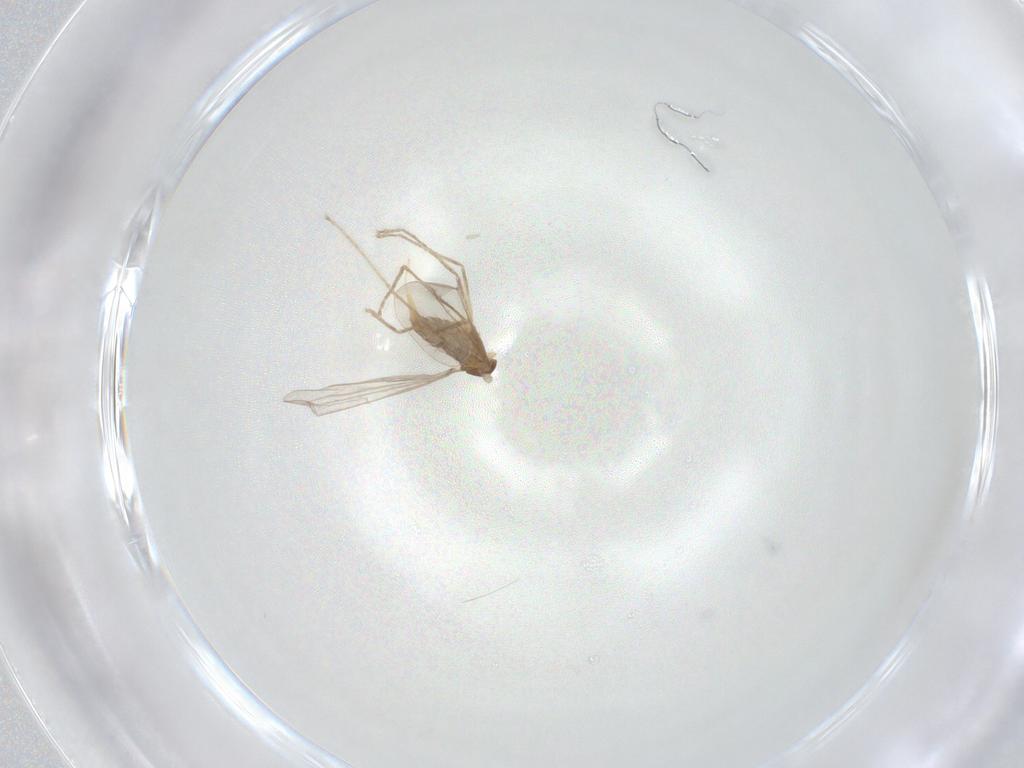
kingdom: Animalia
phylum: Arthropoda
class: Insecta
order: Diptera
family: Cecidomyiidae
